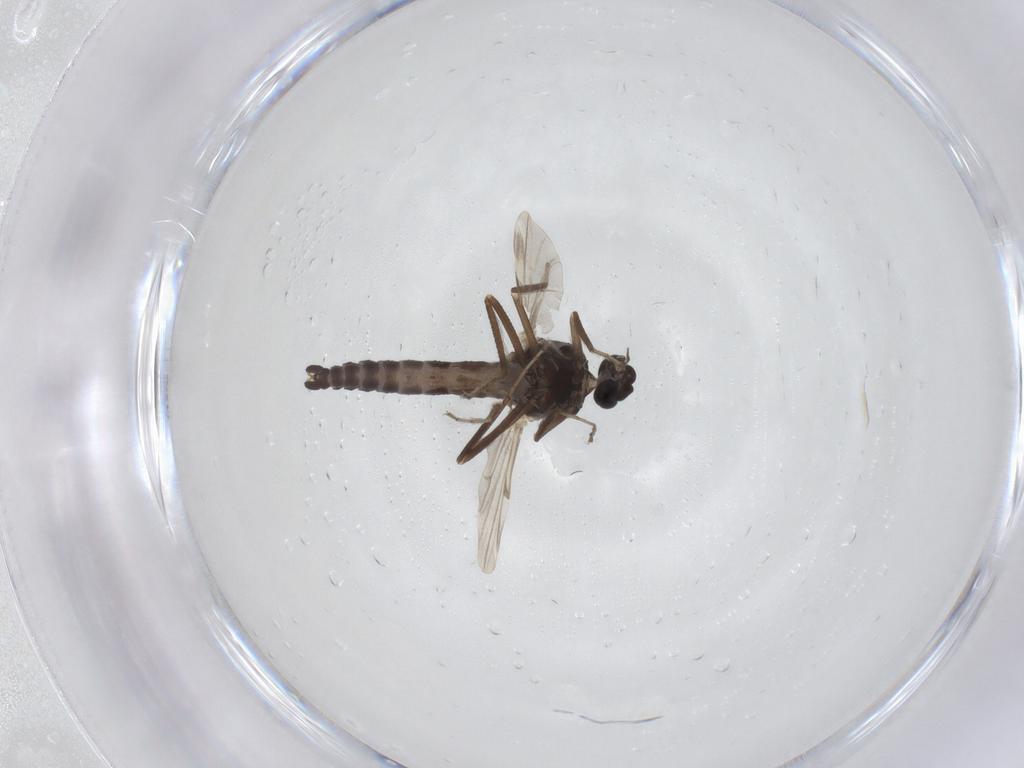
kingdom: Animalia
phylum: Arthropoda
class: Insecta
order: Diptera
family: Ceratopogonidae
